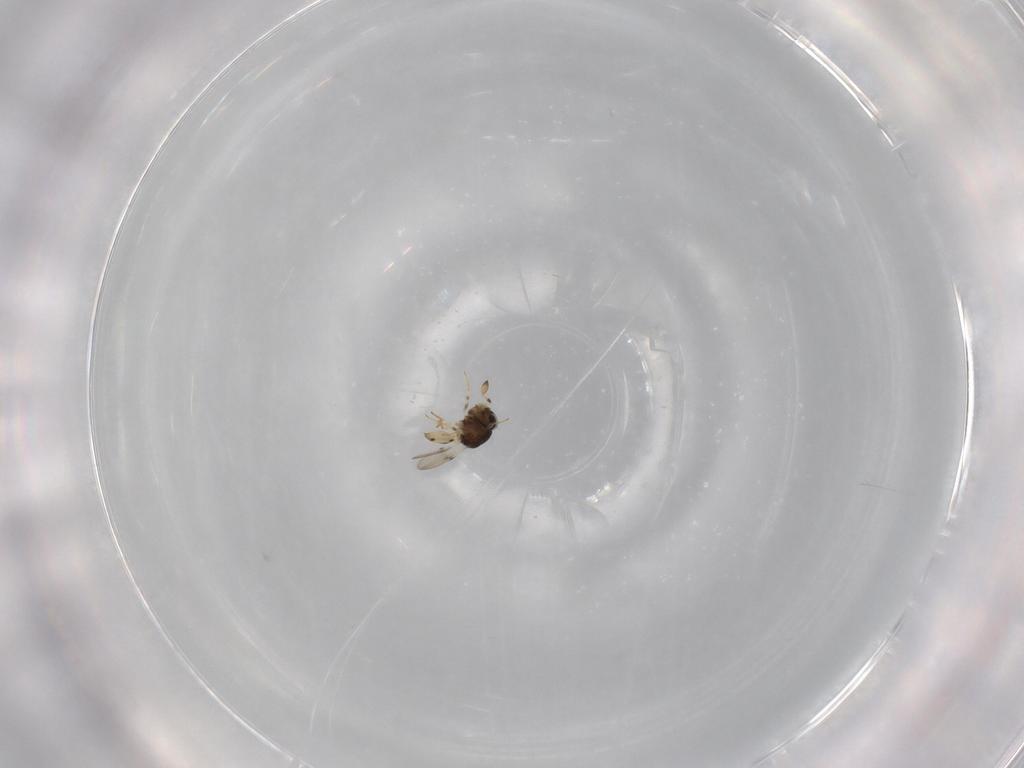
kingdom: Animalia
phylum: Arthropoda
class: Insecta
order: Hymenoptera
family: Scelionidae
